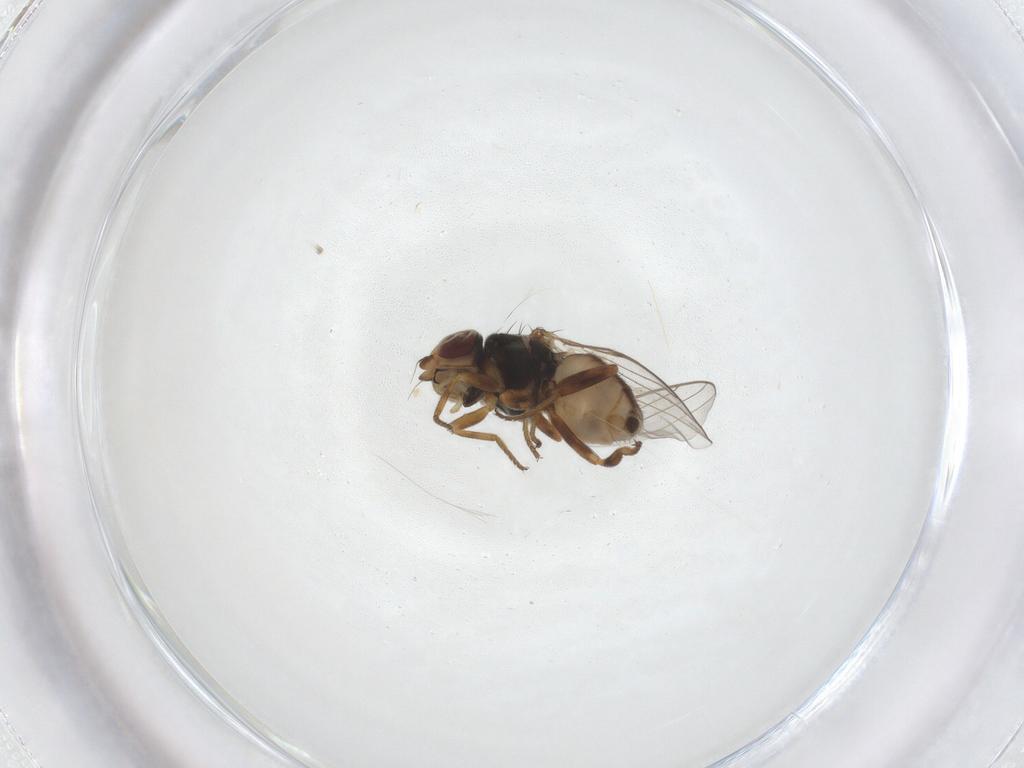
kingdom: Animalia
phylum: Arthropoda
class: Insecta
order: Diptera
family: Chloropidae
